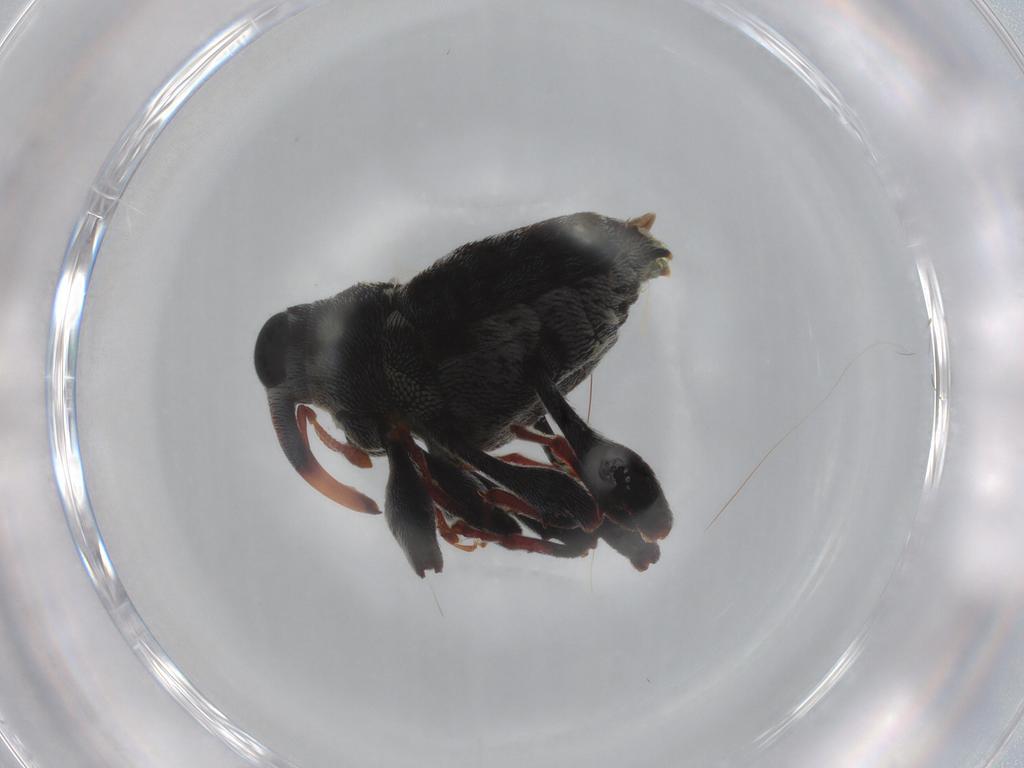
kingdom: Animalia
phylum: Arthropoda
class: Insecta
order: Coleoptera
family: Curculionidae
